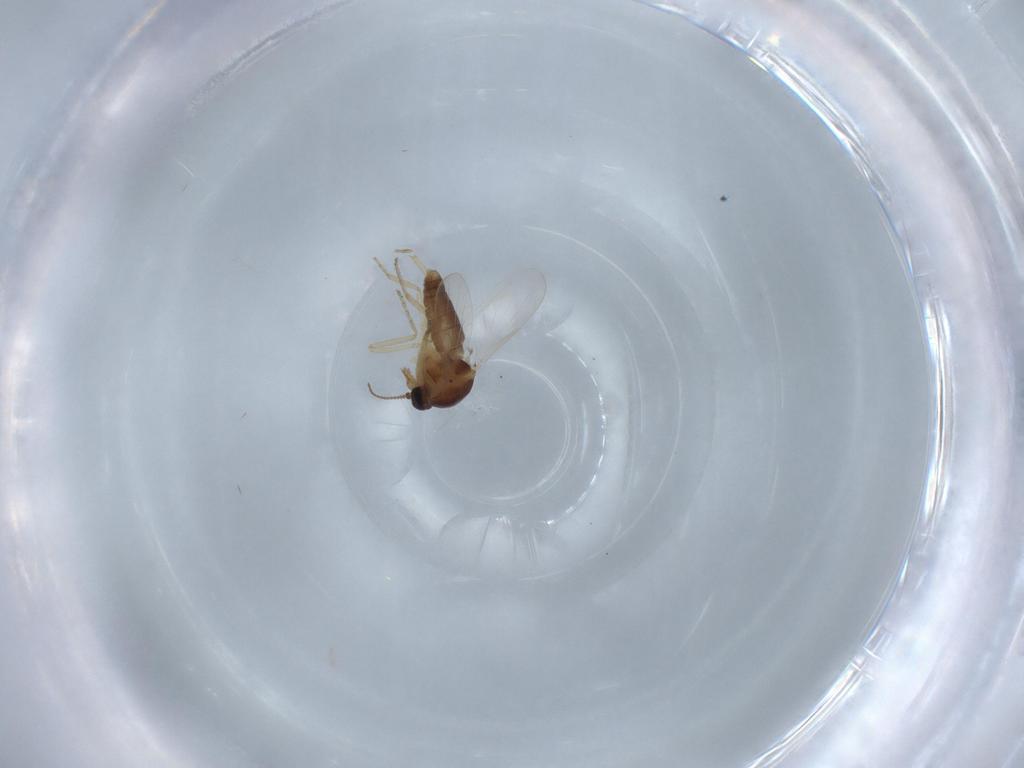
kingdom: Animalia
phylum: Arthropoda
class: Insecta
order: Diptera
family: Ceratopogonidae
